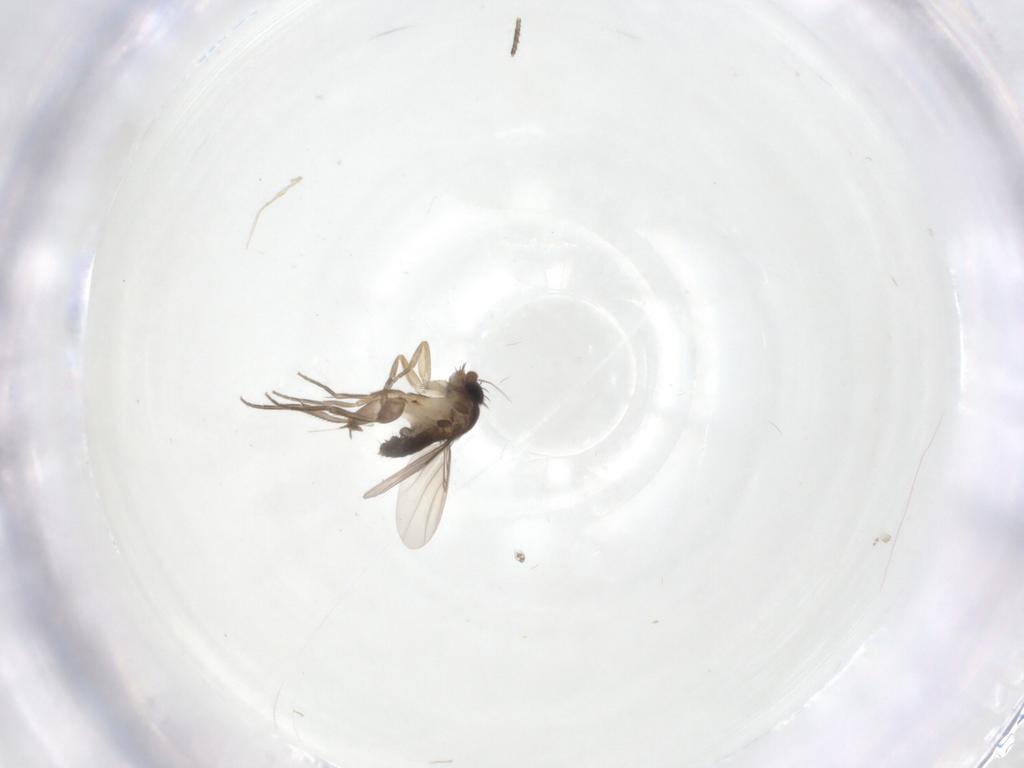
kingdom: Animalia
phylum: Arthropoda
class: Insecta
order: Diptera
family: Phoridae
